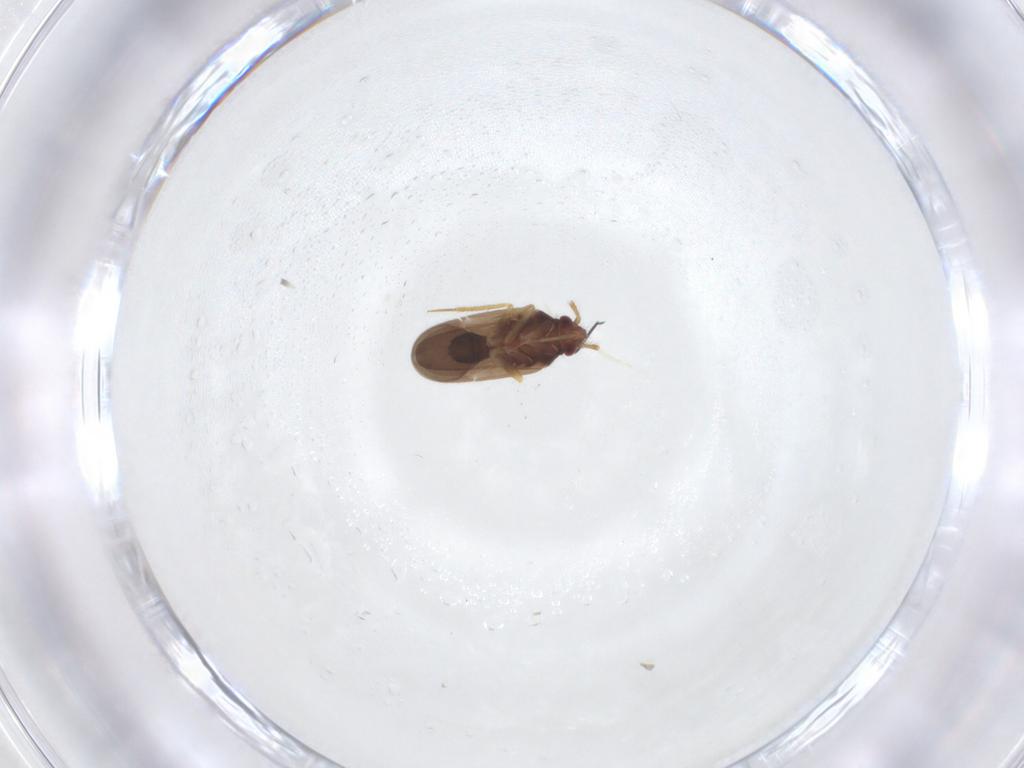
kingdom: Animalia
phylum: Arthropoda
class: Insecta
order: Hemiptera
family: Ceratocombidae
